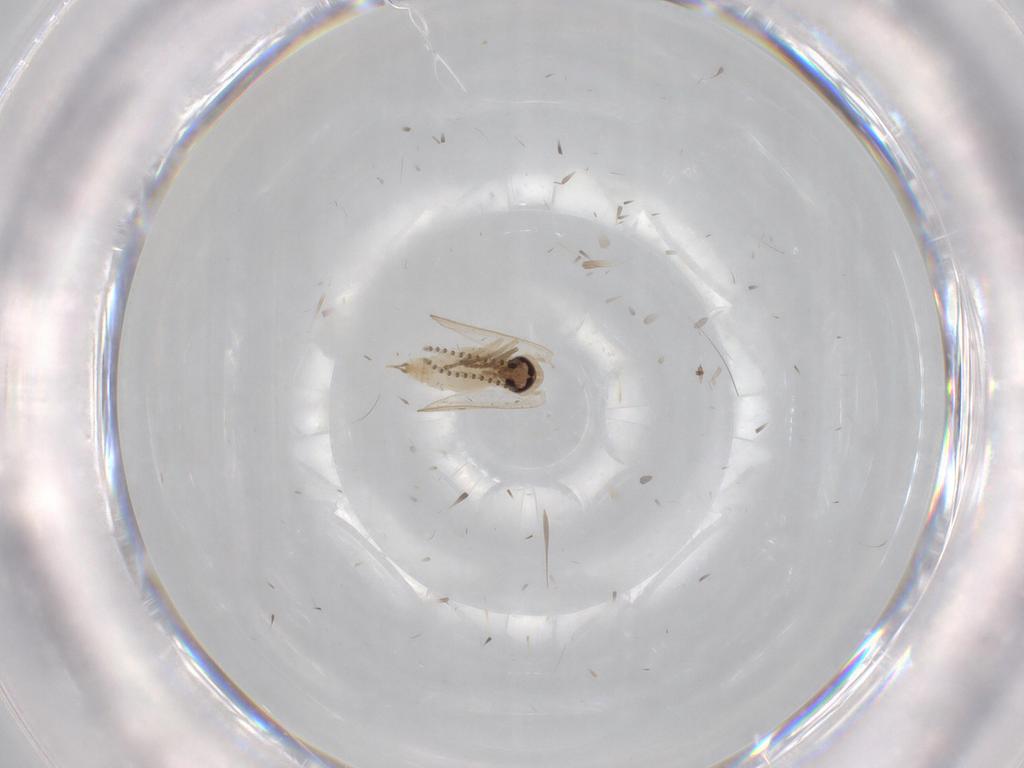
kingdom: Animalia
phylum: Arthropoda
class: Insecta
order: Diptera
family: Psychodidae
